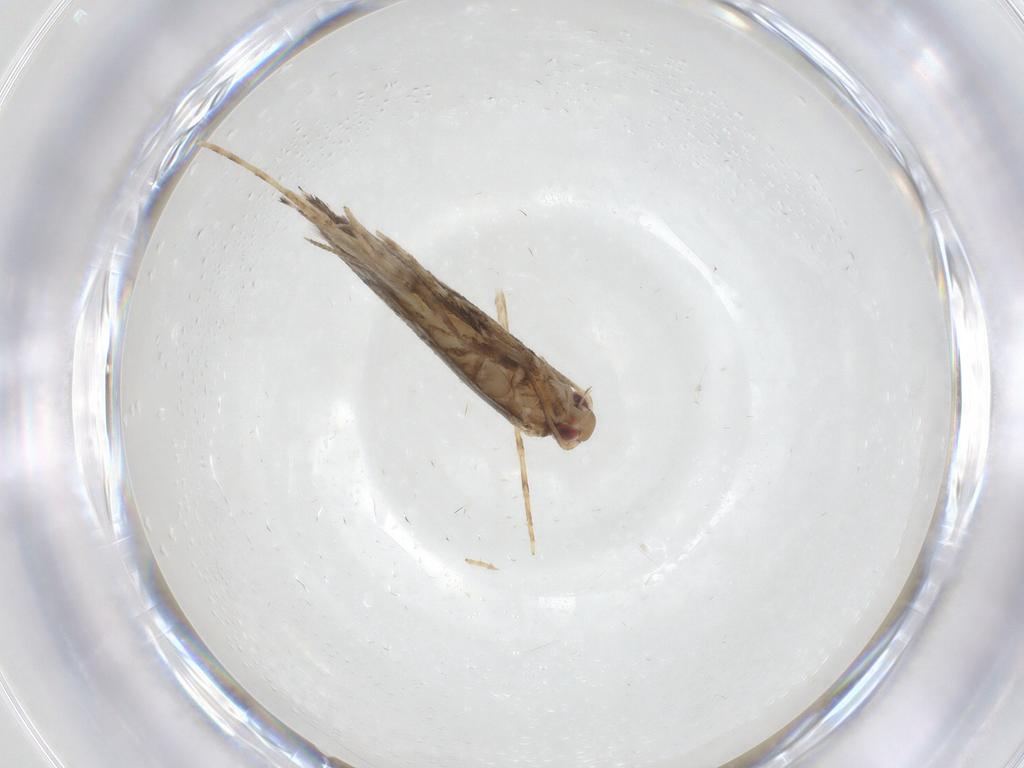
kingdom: Animalia
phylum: Arthropoda
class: Insecta
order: Lepidoptera
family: Gracillariidae
